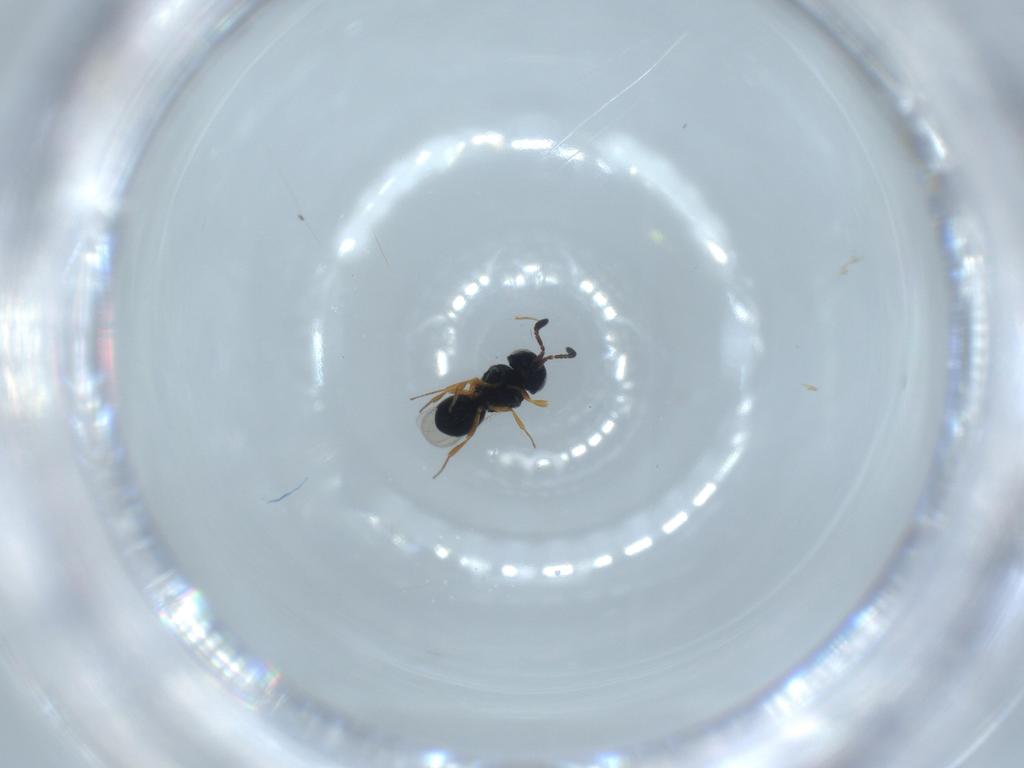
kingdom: Animalia
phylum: Arthropoda
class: Insecta
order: Hymenoptera
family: Scelionidae
